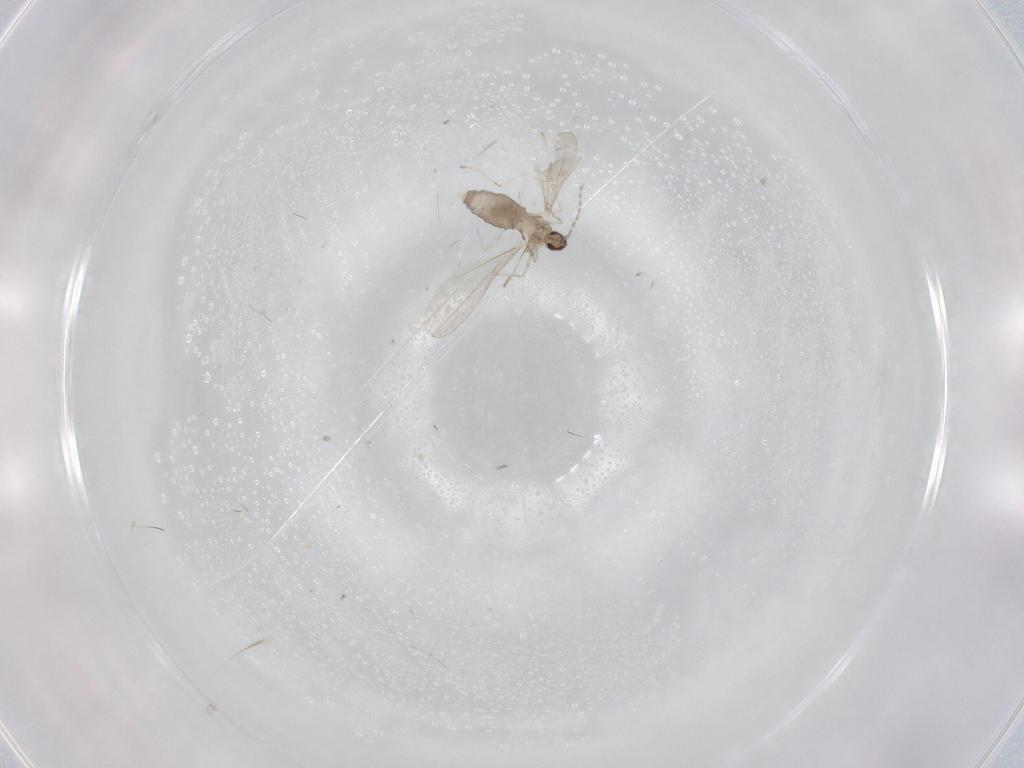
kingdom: Animalia
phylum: Arthropoda
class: Insecta
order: Diptera
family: Cecidomyiidae
